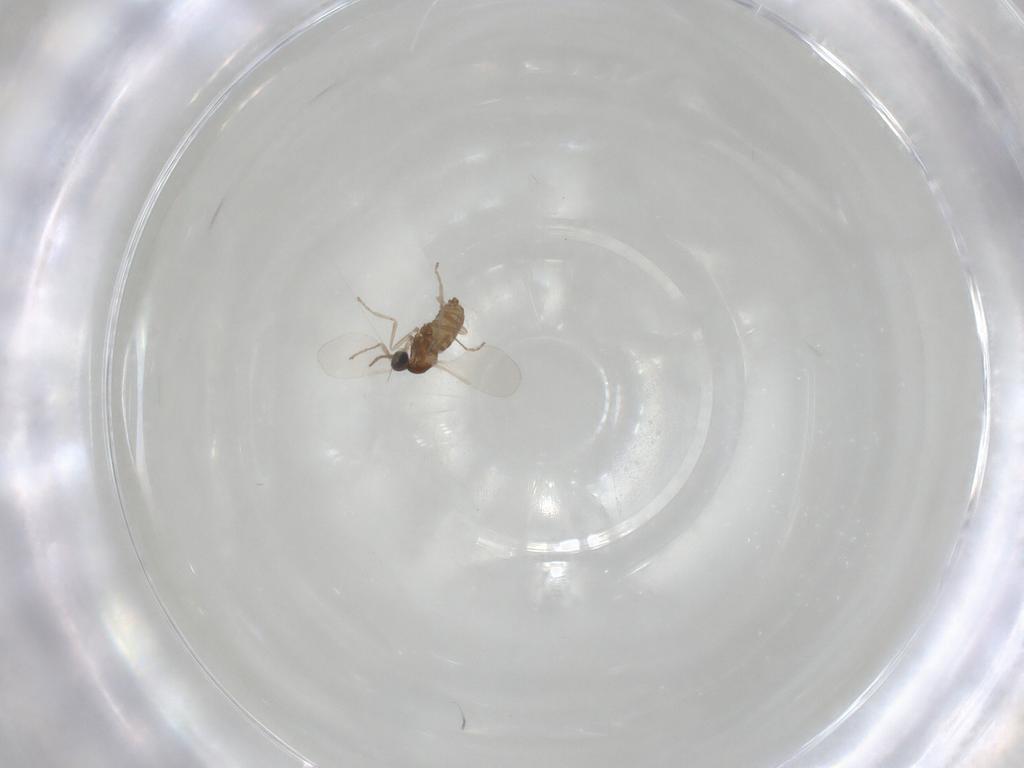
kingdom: Animalia
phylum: Arthropoda
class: Insecta
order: Diptera
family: Cecidomyiidae
